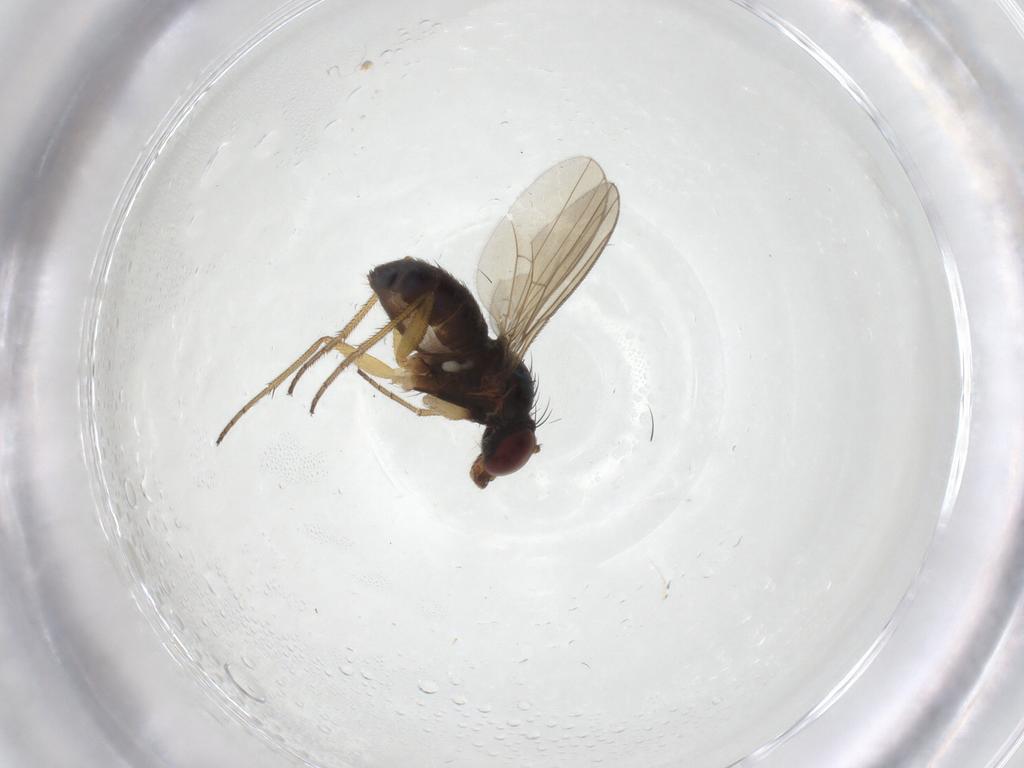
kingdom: Animalia
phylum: Arthropoda
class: Insecta
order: Diptera
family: Dolichopodidae
